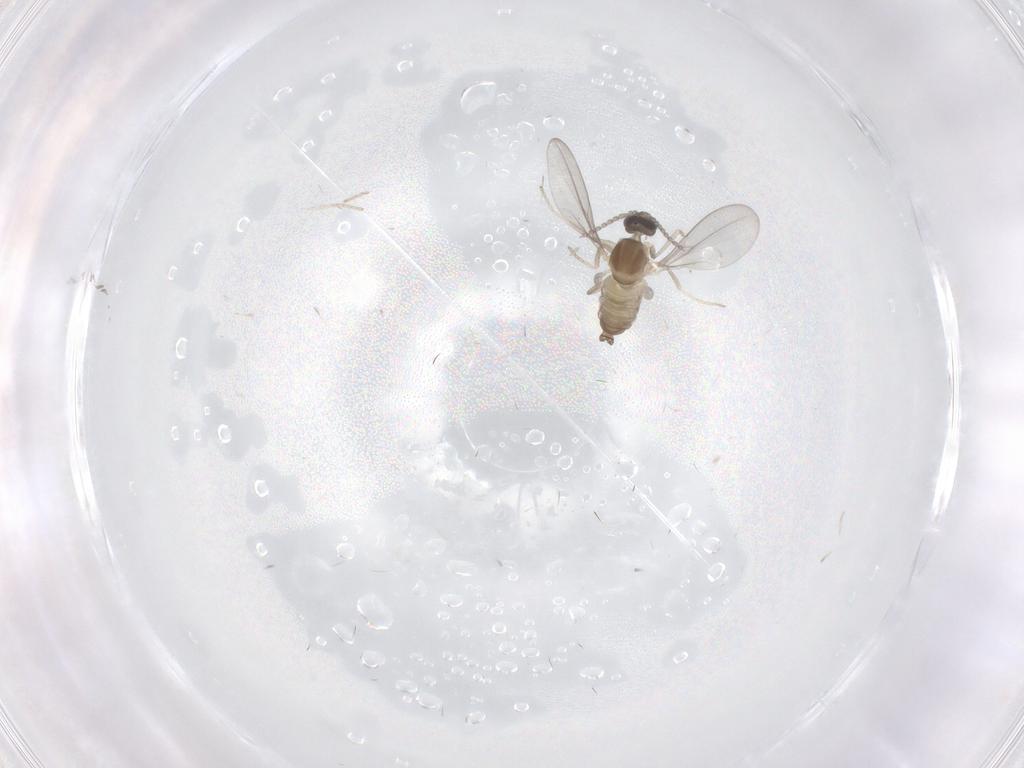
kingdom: Animalia
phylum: Arthropoda
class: Insecta
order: Diptera
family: Cecidomyiidae
